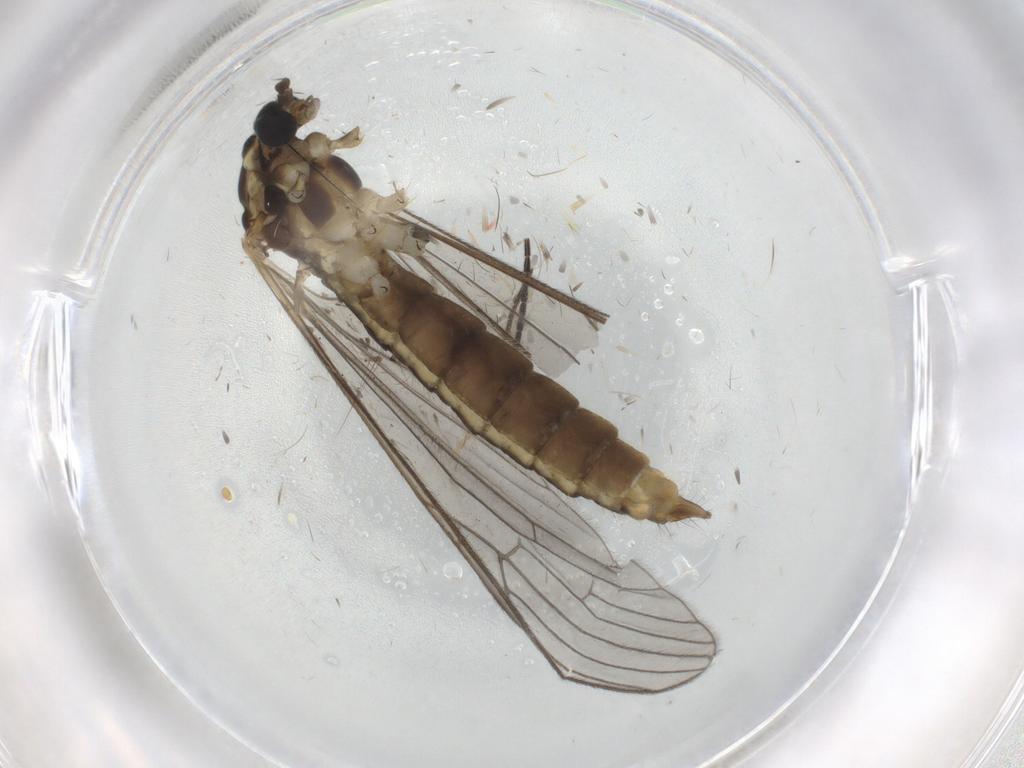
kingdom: Animalia
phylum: Arthropoda
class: Insecta
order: Diptera
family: Limoniidae
